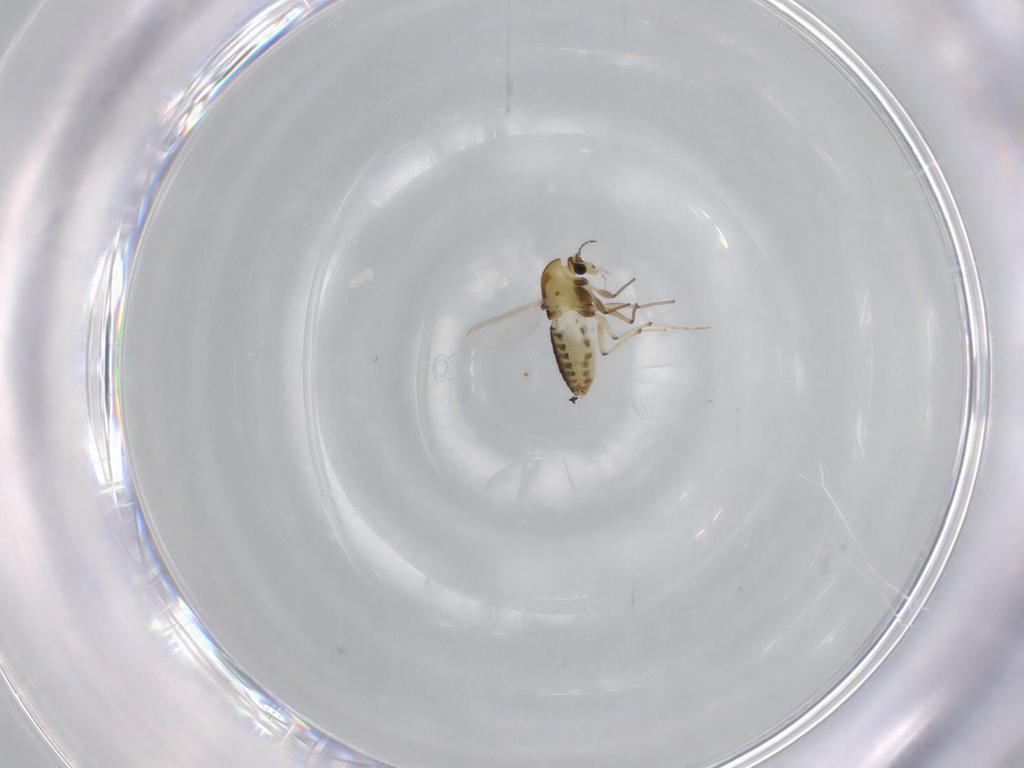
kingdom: Animalia
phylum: Arthropoda
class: Insecta
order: Diptera
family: Chironomidae
